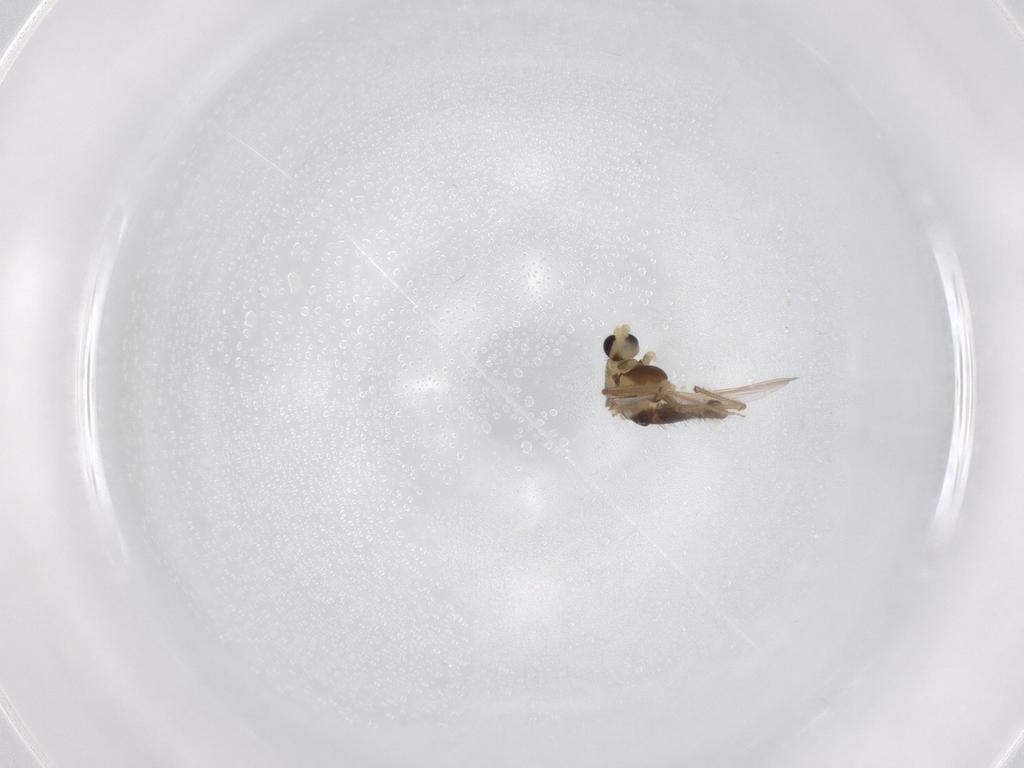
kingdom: Animalia
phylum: Arthropoda
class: Insecta
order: Diptera
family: Chironomidae
